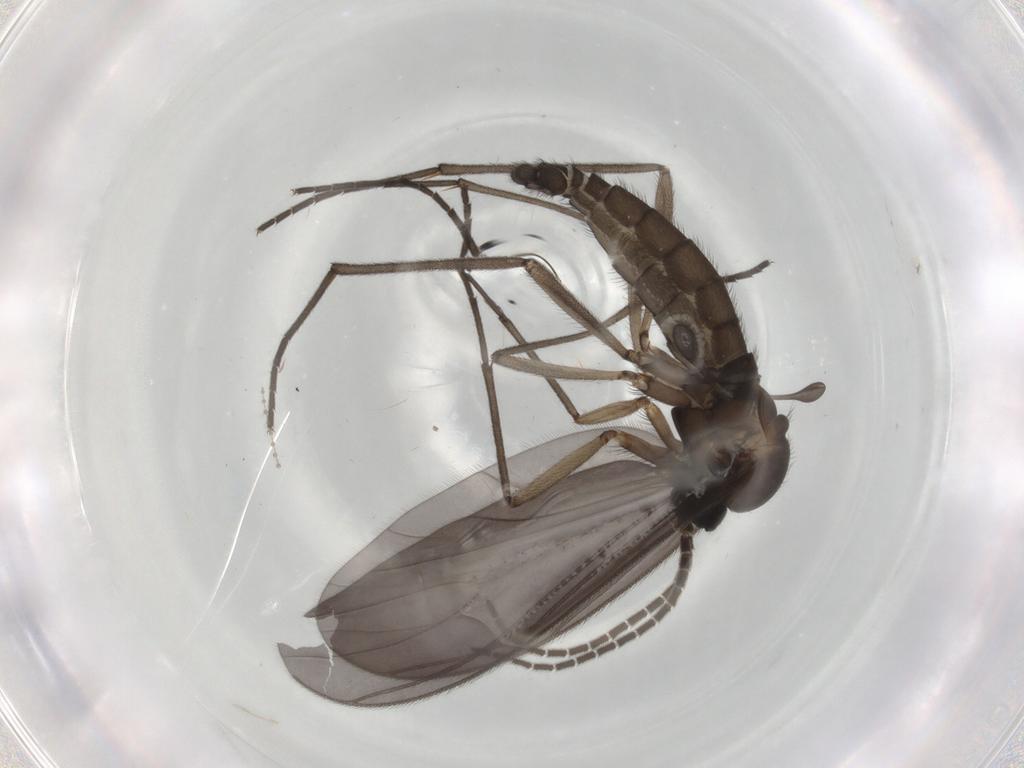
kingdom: Animalia
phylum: Arthropoda
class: Insecta
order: Diptera
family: Sciaridae
